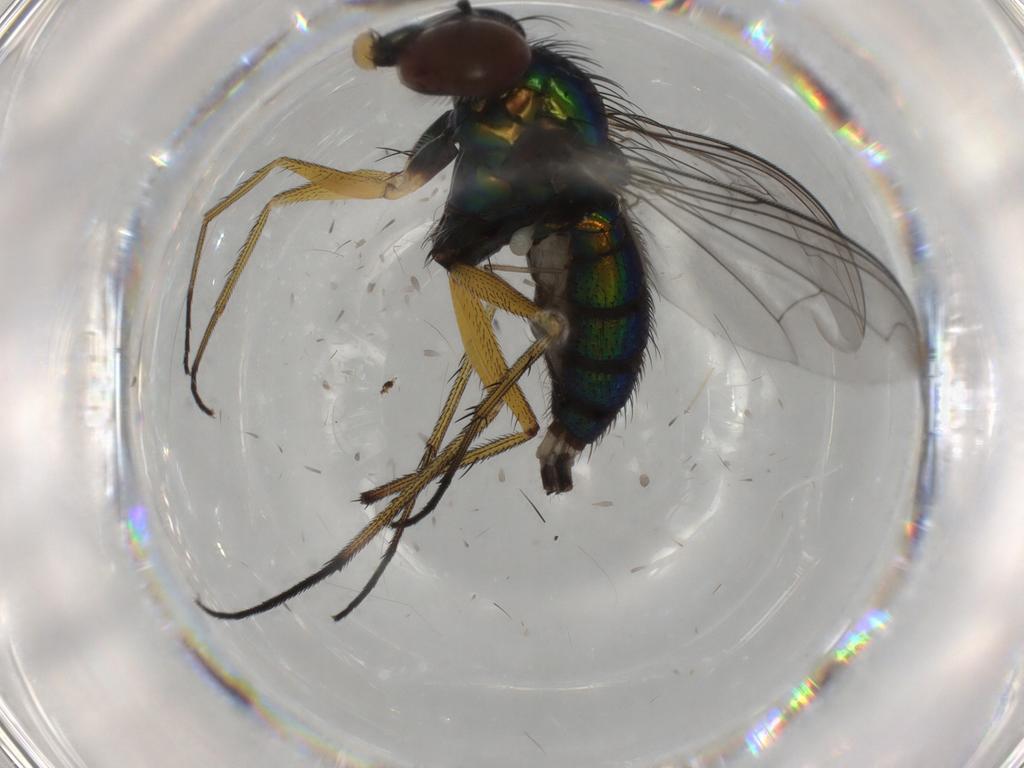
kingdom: Animalia
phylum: Arthropoda
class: Insecta
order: Diptera
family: Dolichopodidae
